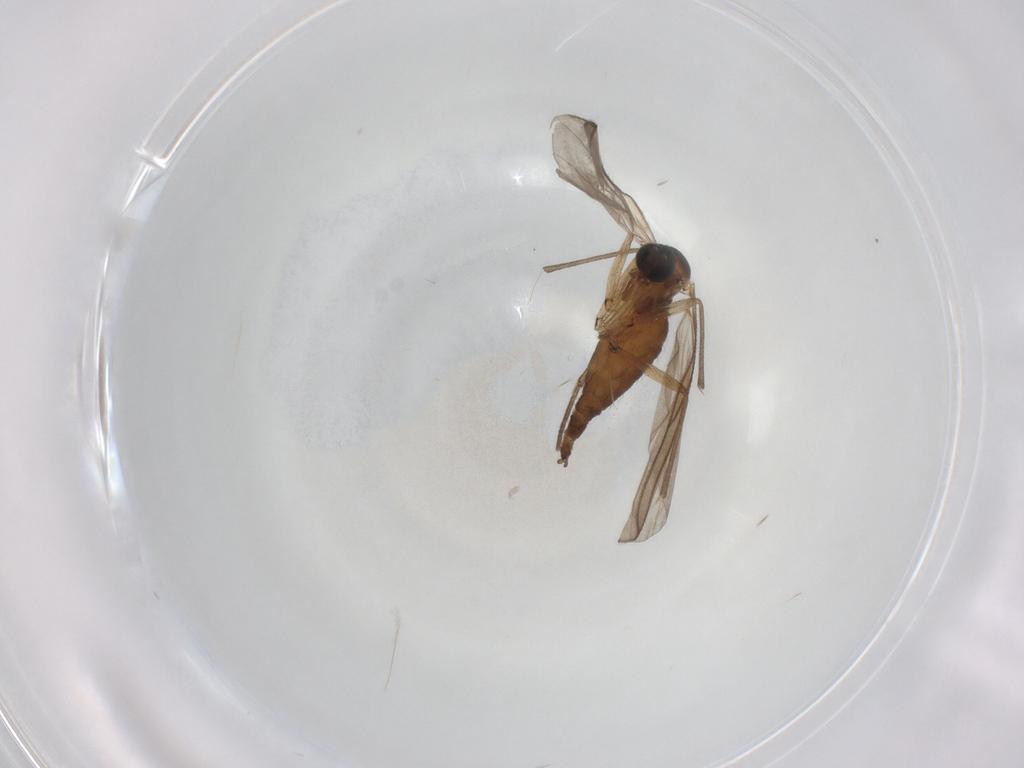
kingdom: Animalia
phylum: Arthropoda
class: Insecta
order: Diptera
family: Sciaridae
